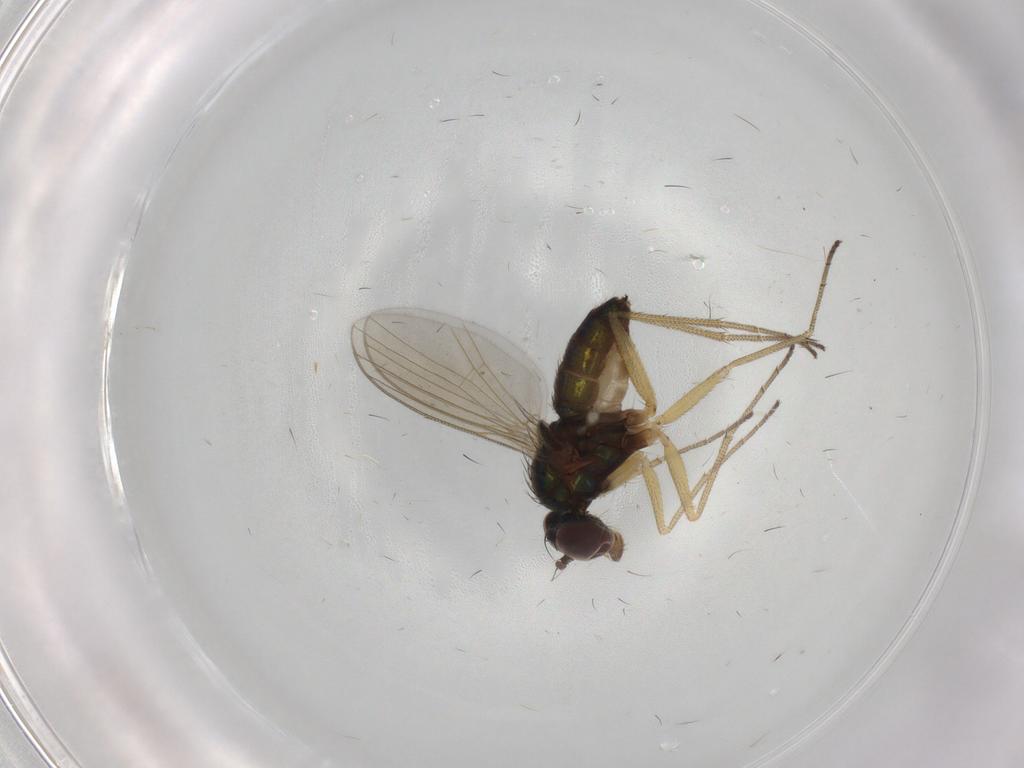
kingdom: Animalia
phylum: Arthropoda
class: Insecta
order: Diptera
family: Dolichopodidae
